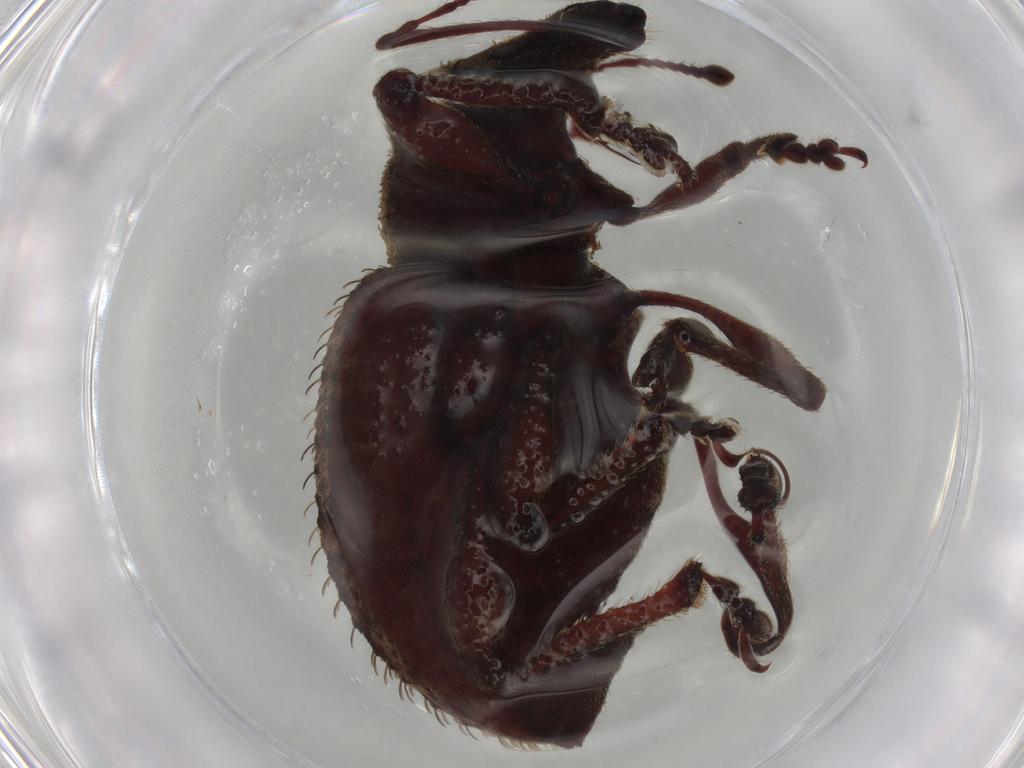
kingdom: Animalia
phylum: Arthropoda
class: Insecta
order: Coleoptera
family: Curculionidae
